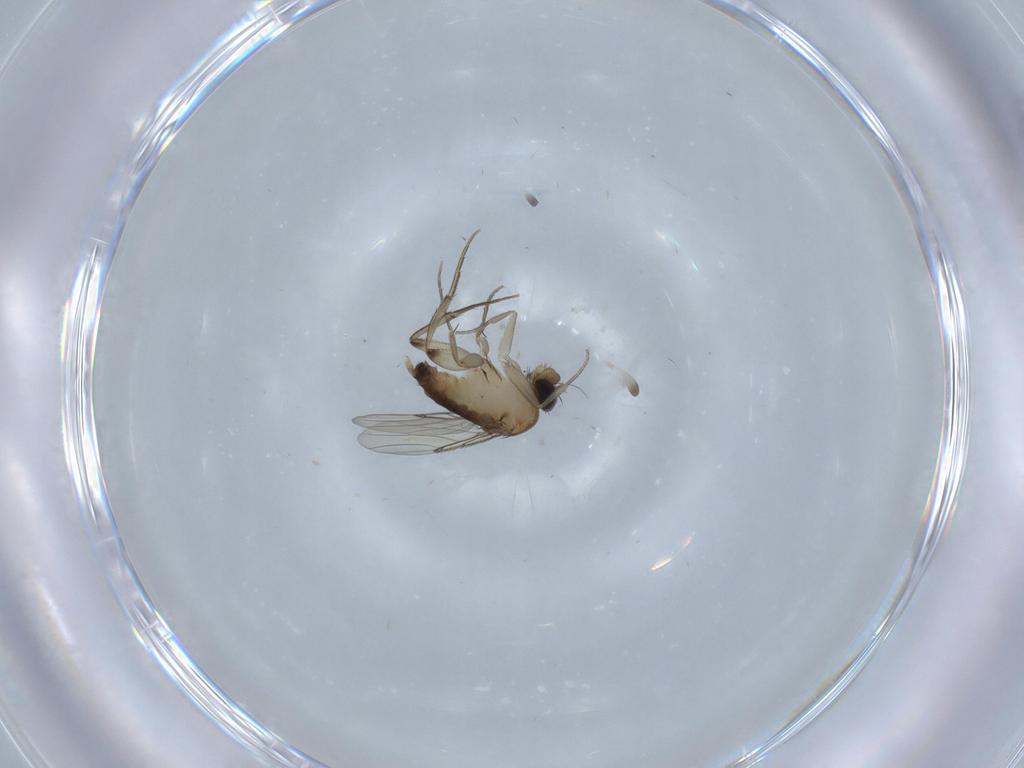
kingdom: Animalia
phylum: Arthropoda
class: Insecta
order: Diptera
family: Phoridae
